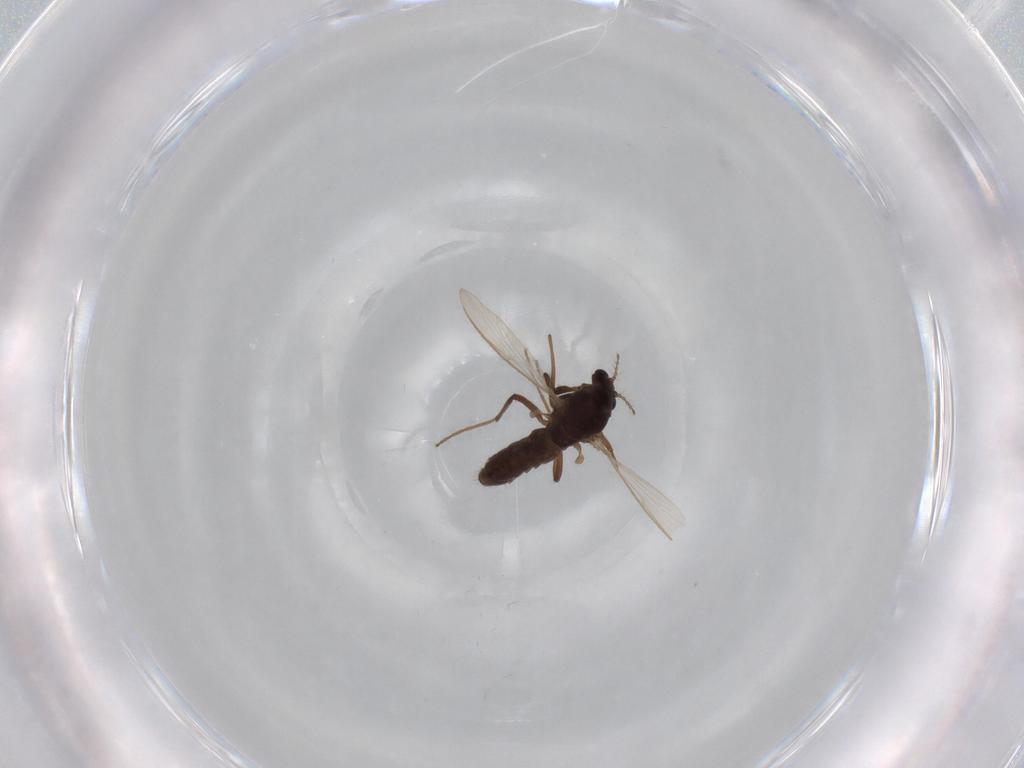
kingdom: Animalia
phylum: Arthropoda
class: Insecta
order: Diptera
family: Chironomidae
